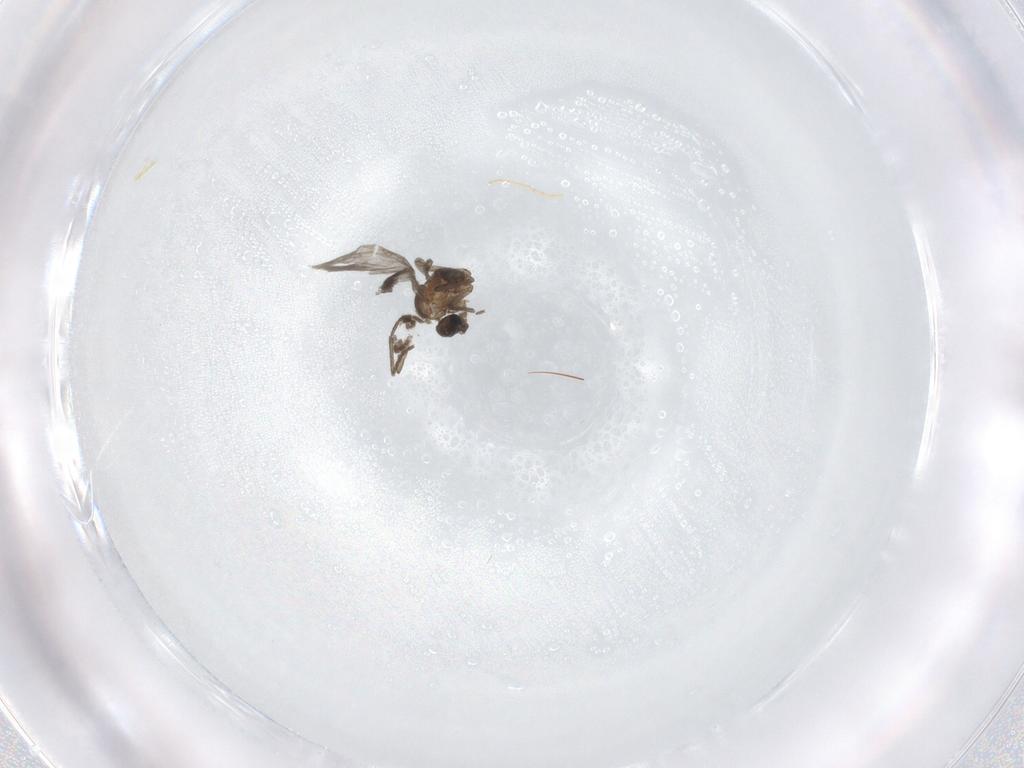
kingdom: Animalia
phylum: Arthropoda
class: Insecta
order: Diptera
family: Sciaridae
